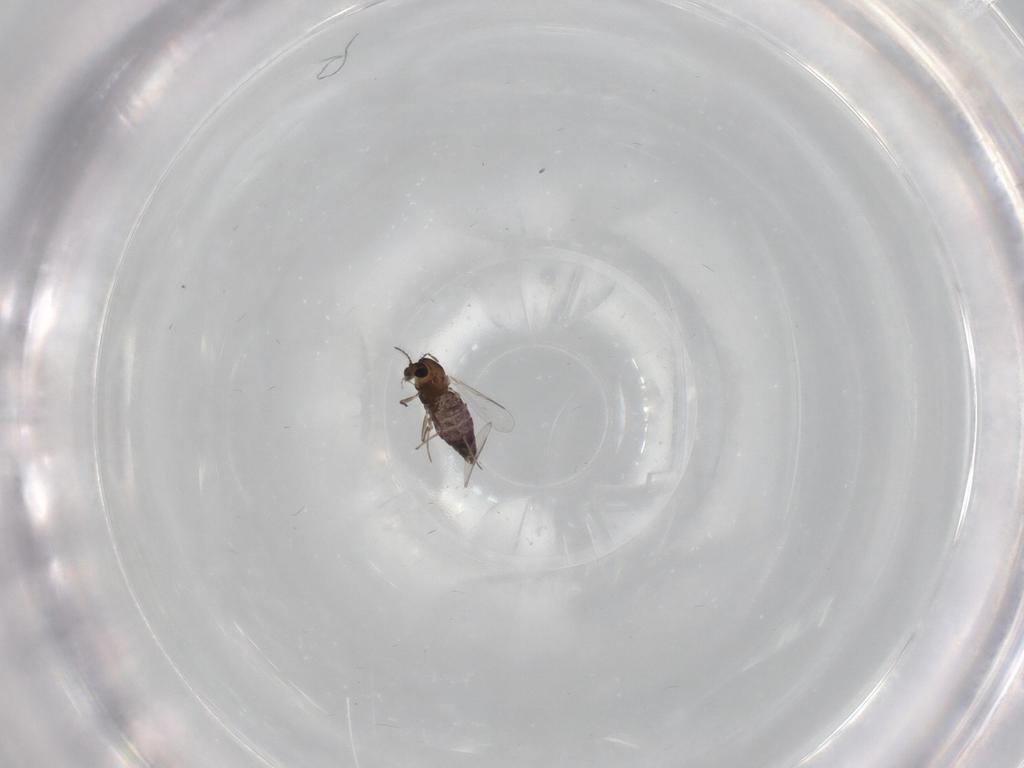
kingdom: Animalia
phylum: Arthropoda
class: Insecta
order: Diptera
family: Chironomidae
